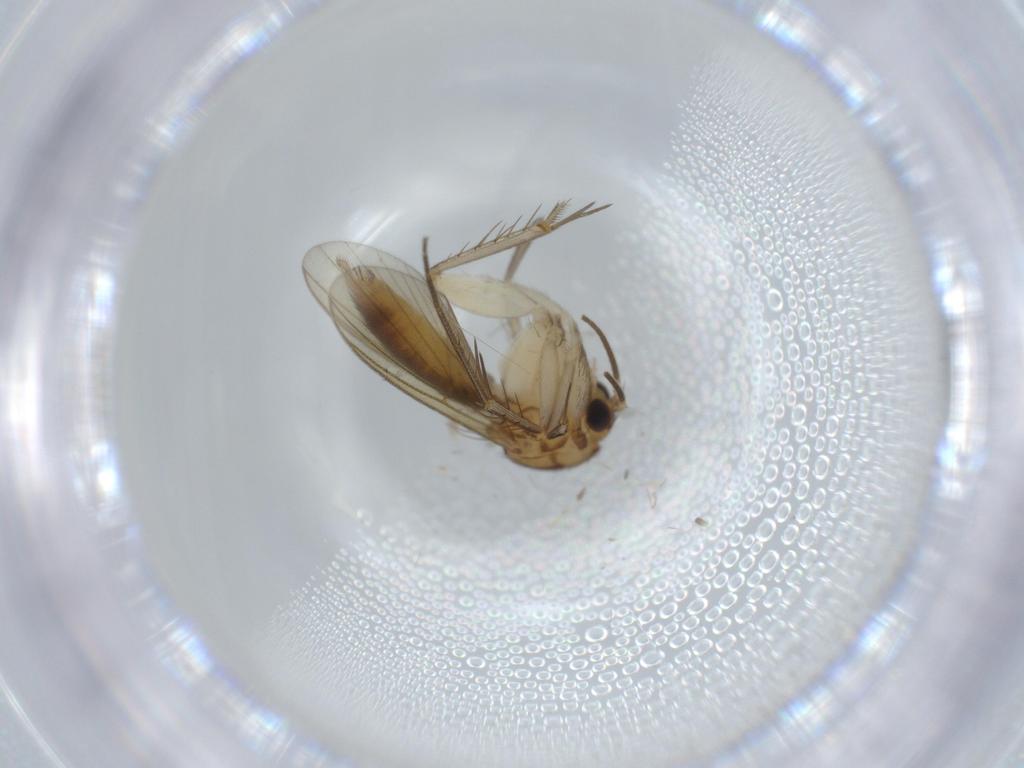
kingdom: Animalia
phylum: Arthropoda
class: Insecta
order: Diptera
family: Mycetophilidae
